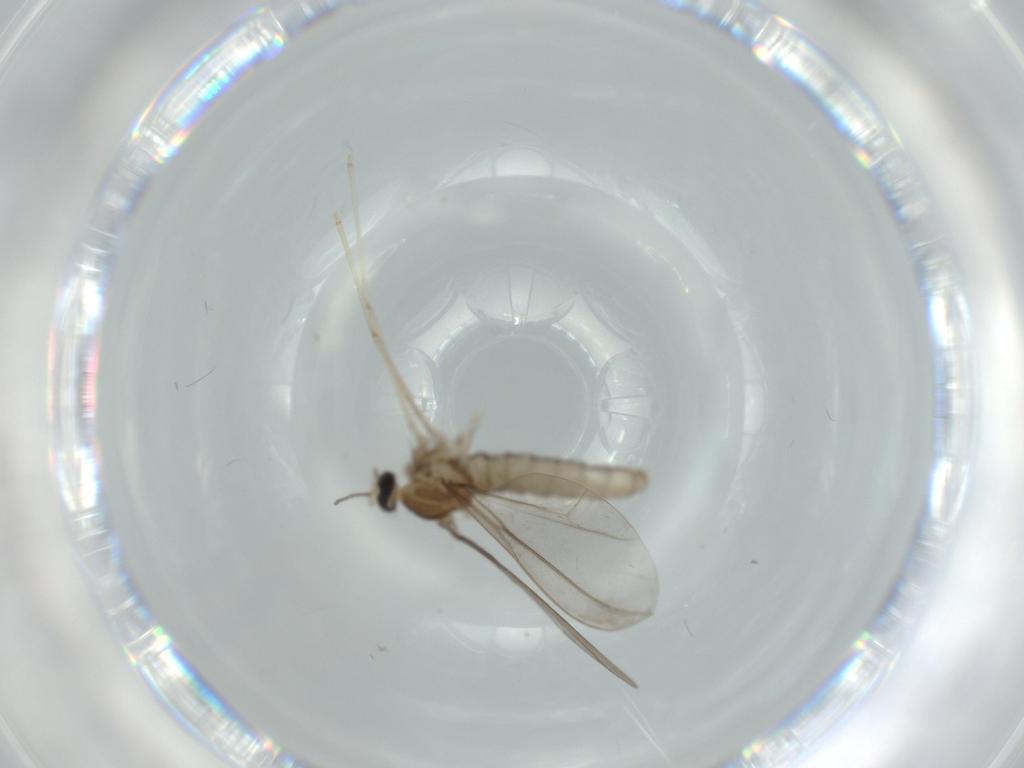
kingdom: Animalia
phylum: Arthropoda
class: Insecta
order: Diptera
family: Cecidomyiidae
